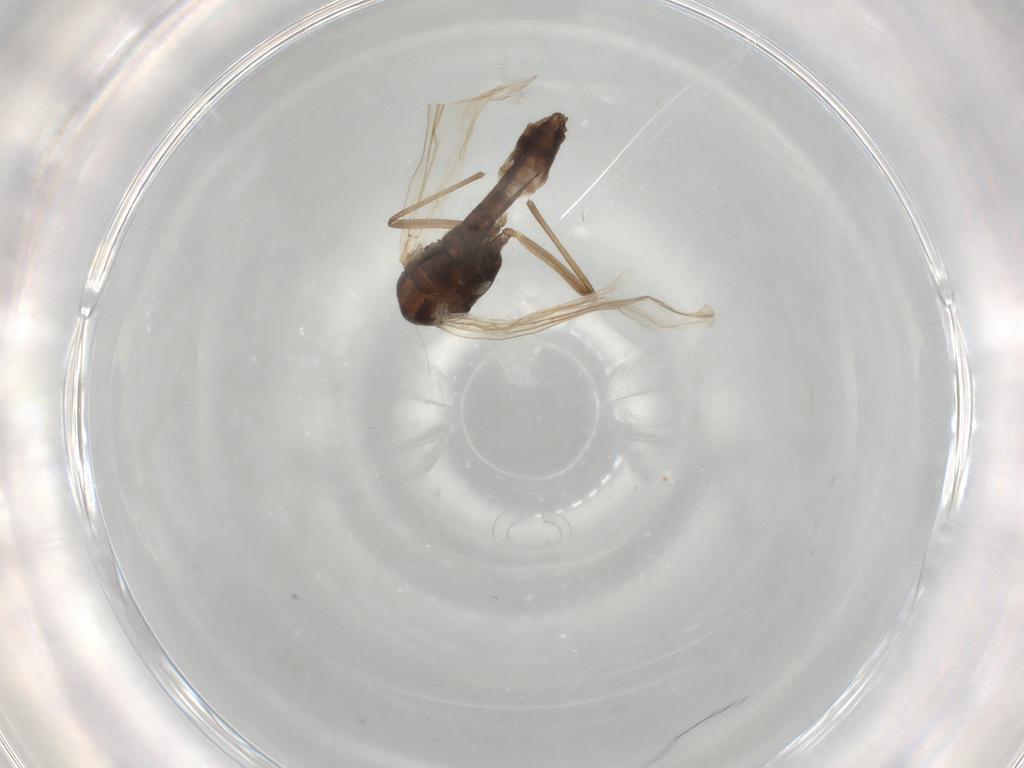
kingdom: Animalia
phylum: Arthropoda
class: Insecta
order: Diptera
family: Chironomidae
